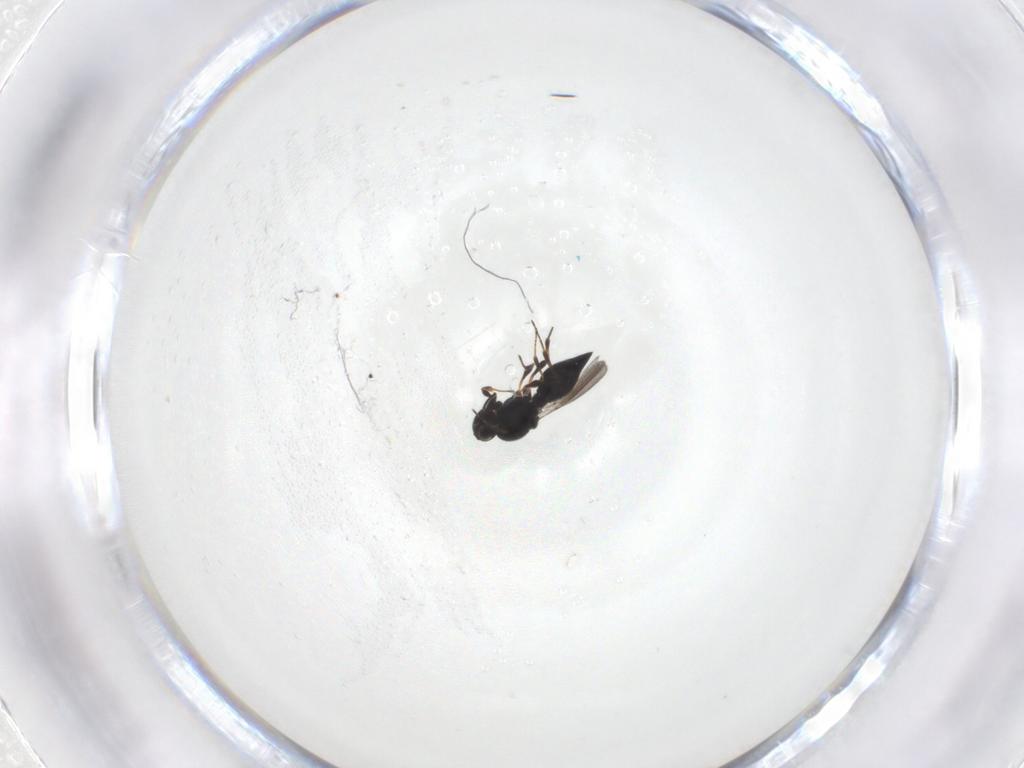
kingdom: Animalia
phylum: Arthropoda
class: Insecta
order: Hymenoptera
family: Platygastridae
